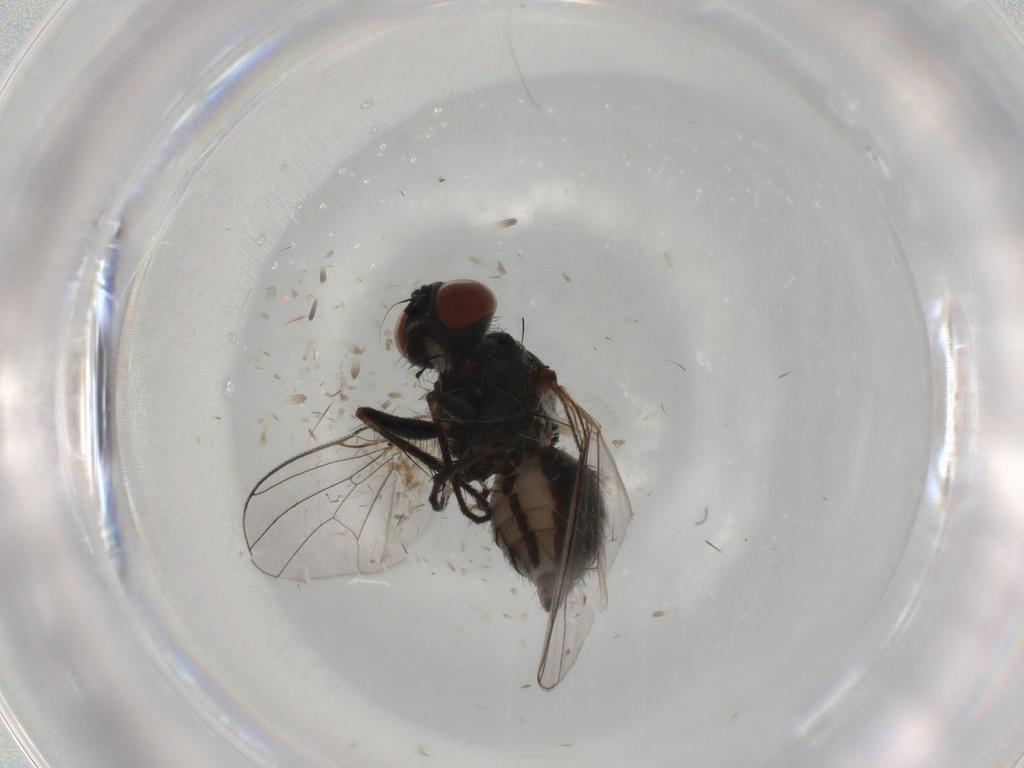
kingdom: Animalia
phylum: Arthropoda
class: Insecta
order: Diptera
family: Muscidae
